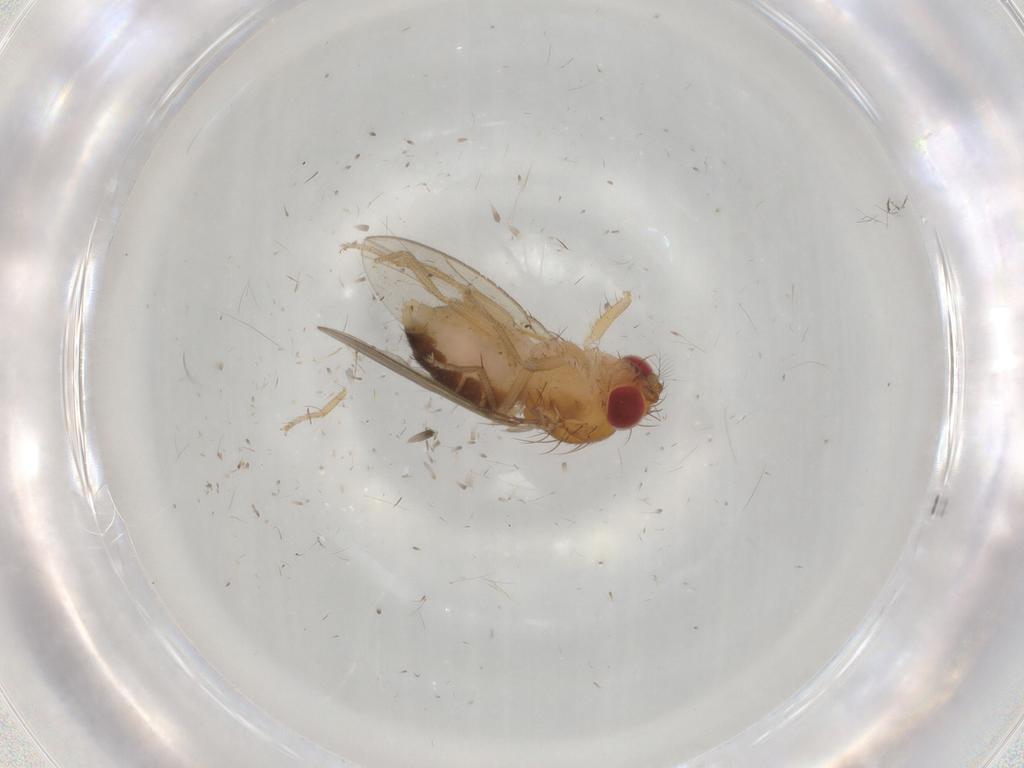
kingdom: Animalia
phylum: Arthropoda
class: Insecta
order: Diptera
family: Drosophilidae
